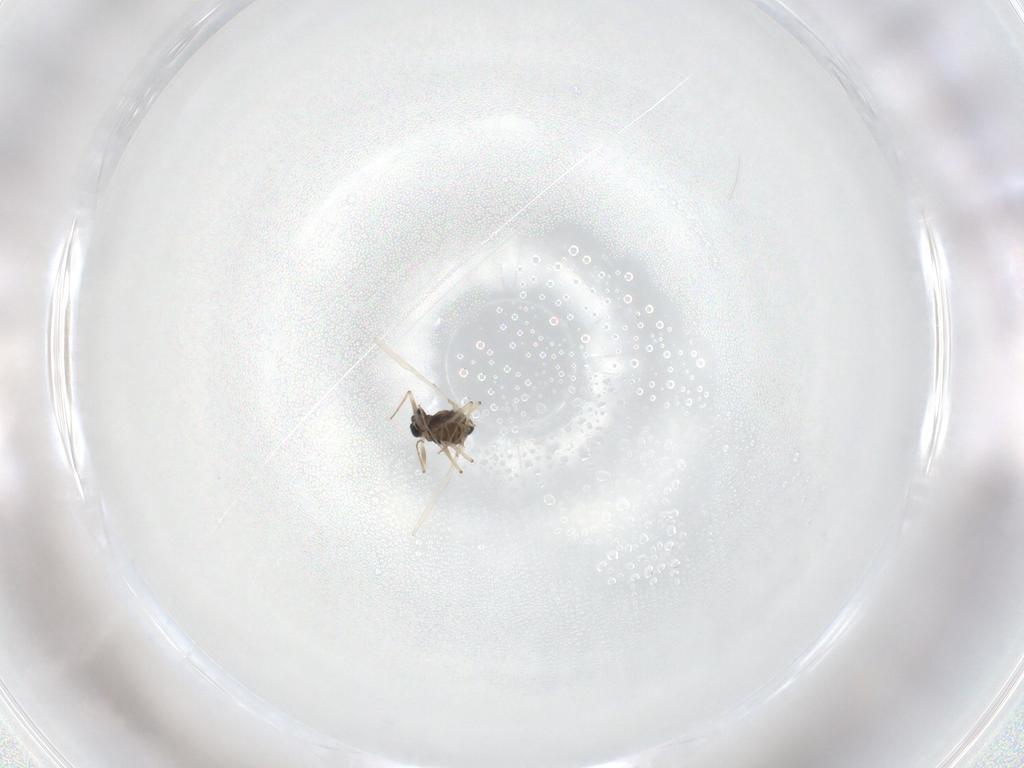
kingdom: Animalia
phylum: Arthropoda
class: Insecta
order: Diptera
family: Chironomidae
